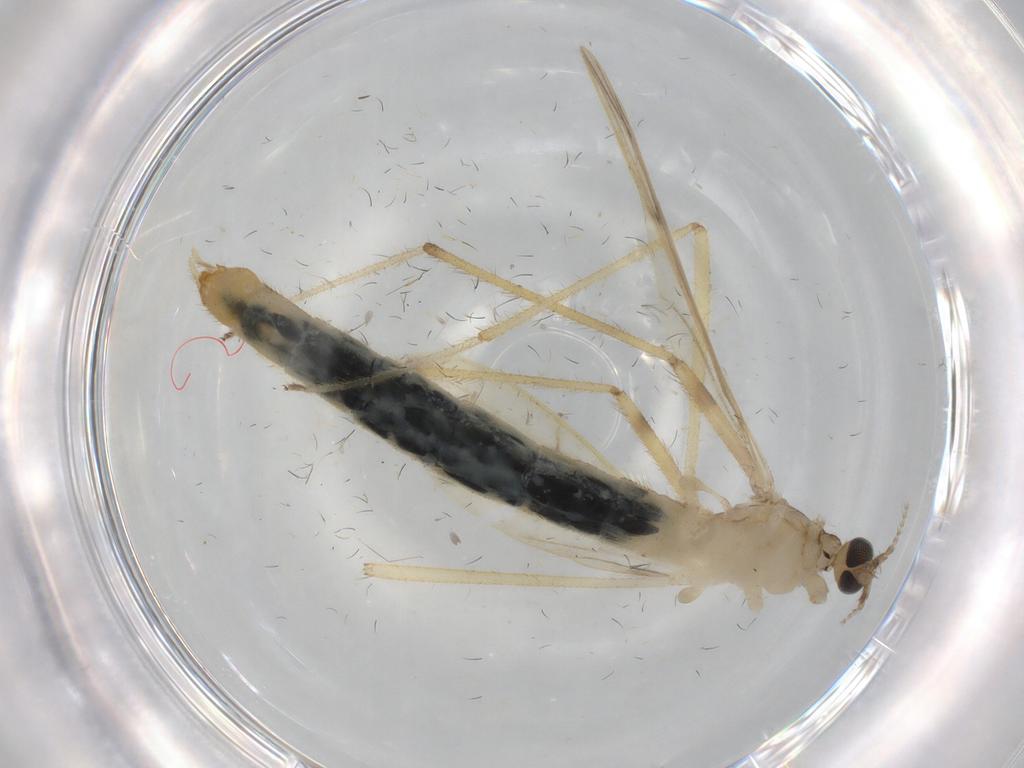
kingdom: Animalia
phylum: Arthropoda
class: Insecta
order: Diptera
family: Limoniidae
